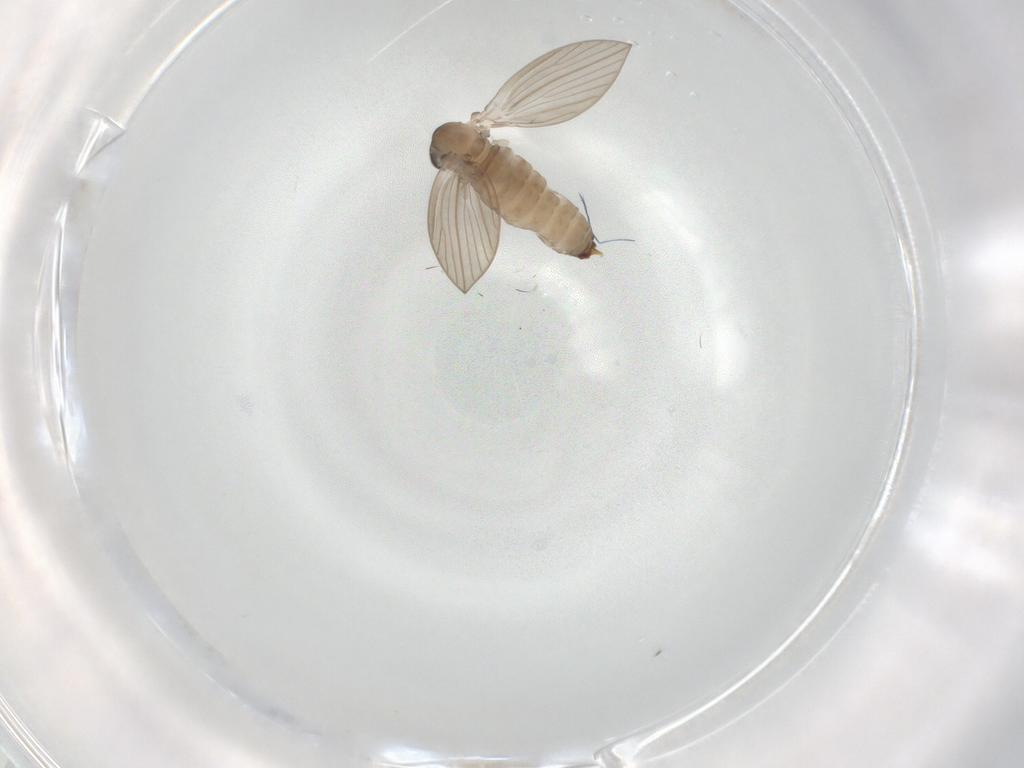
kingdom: Animalia
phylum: Arthropoda
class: Insecta
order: Diptera
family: Psychodidae
